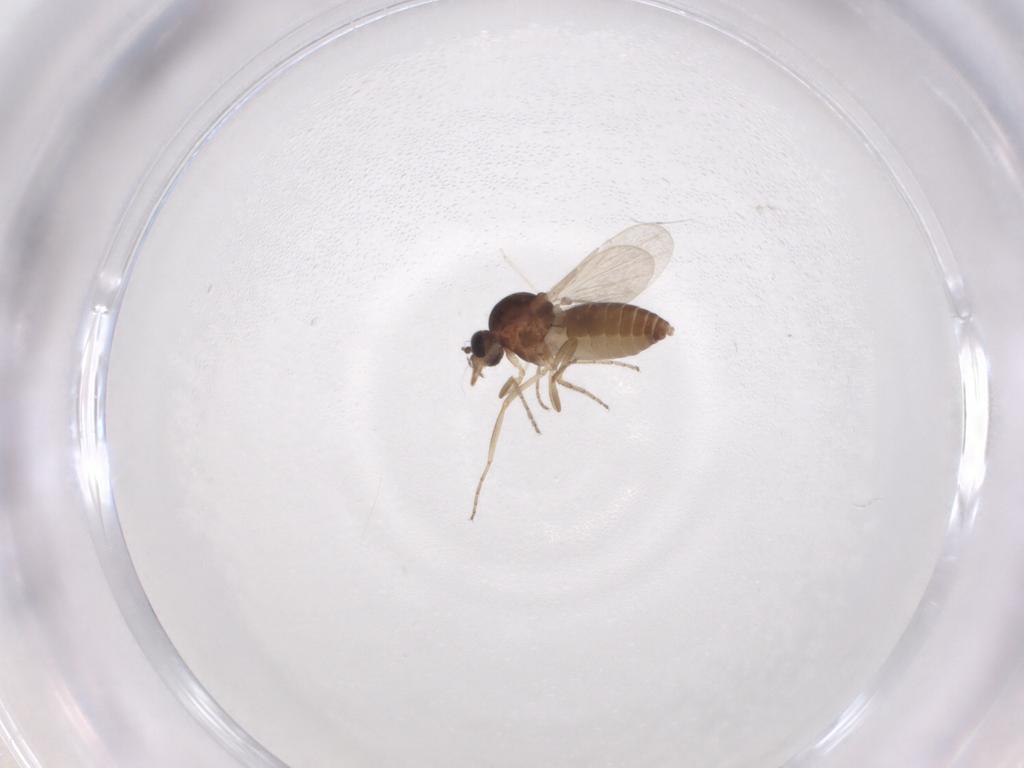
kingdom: Animalia
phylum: Arthropoda
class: Insecta
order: Diptera
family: Ceratopogonidae
